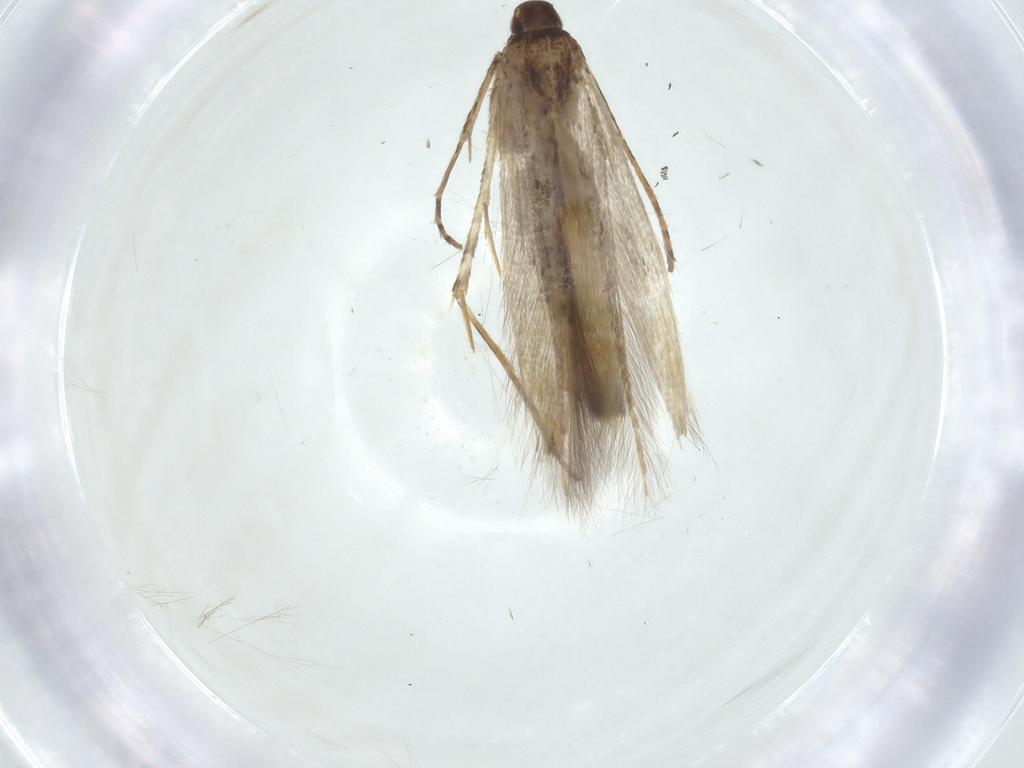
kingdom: Animalia
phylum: Arthropoda
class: Insecta
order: Lepidoptera
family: Cosmopterigidae
